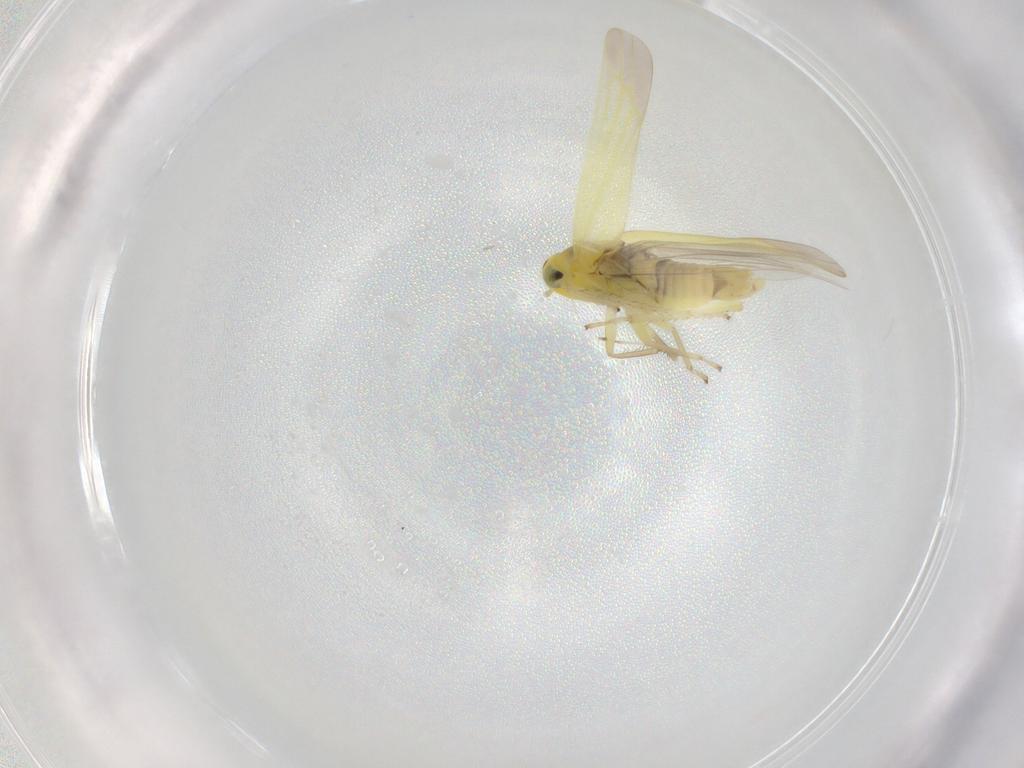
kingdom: Animalia
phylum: Arthropoda
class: Insecta
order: Hemiptera
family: Cicadellidae
